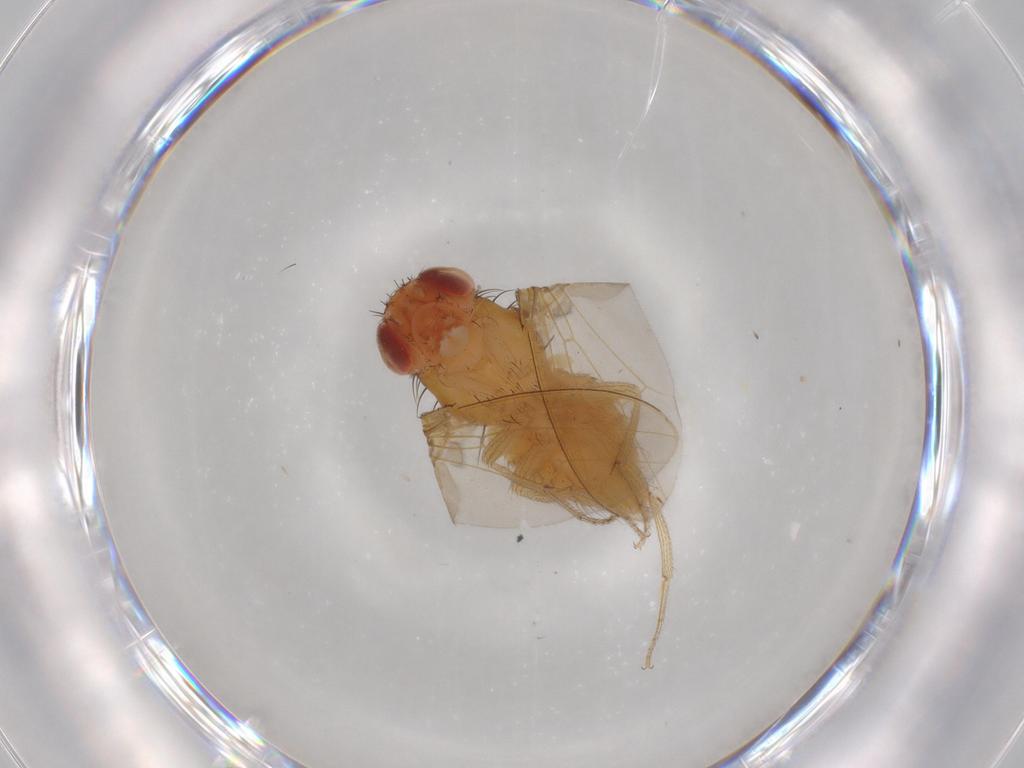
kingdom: Animalia
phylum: Arthropoda
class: Insecta
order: Diptera
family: Drosophilidae
